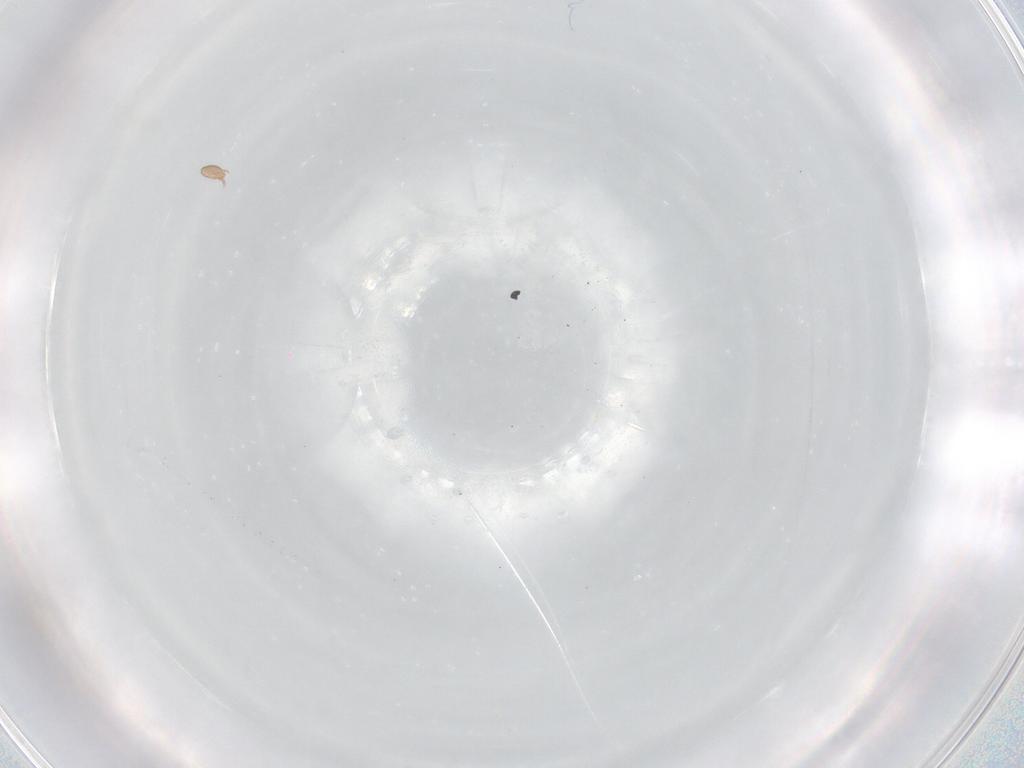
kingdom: Animalia
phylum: Arthropoda
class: Arachnida
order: Sarcoptiformes
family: Eremaeidae
